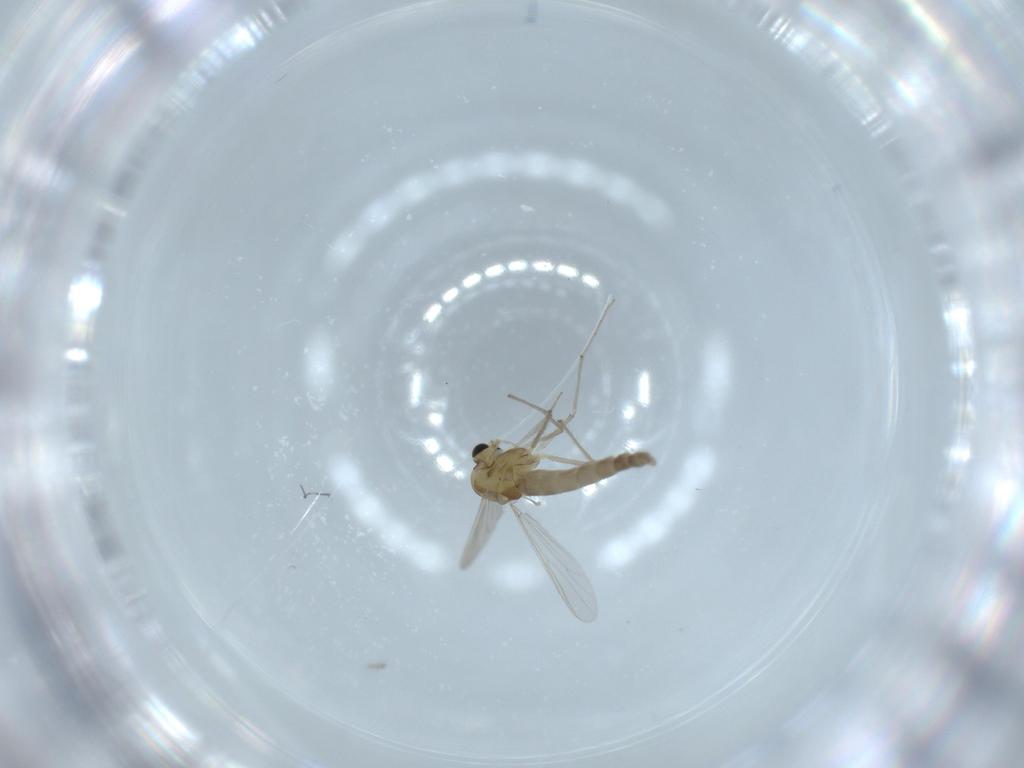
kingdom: Animalia
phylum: Arthropoda
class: Insecta
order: Diptera
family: Chironomidae
